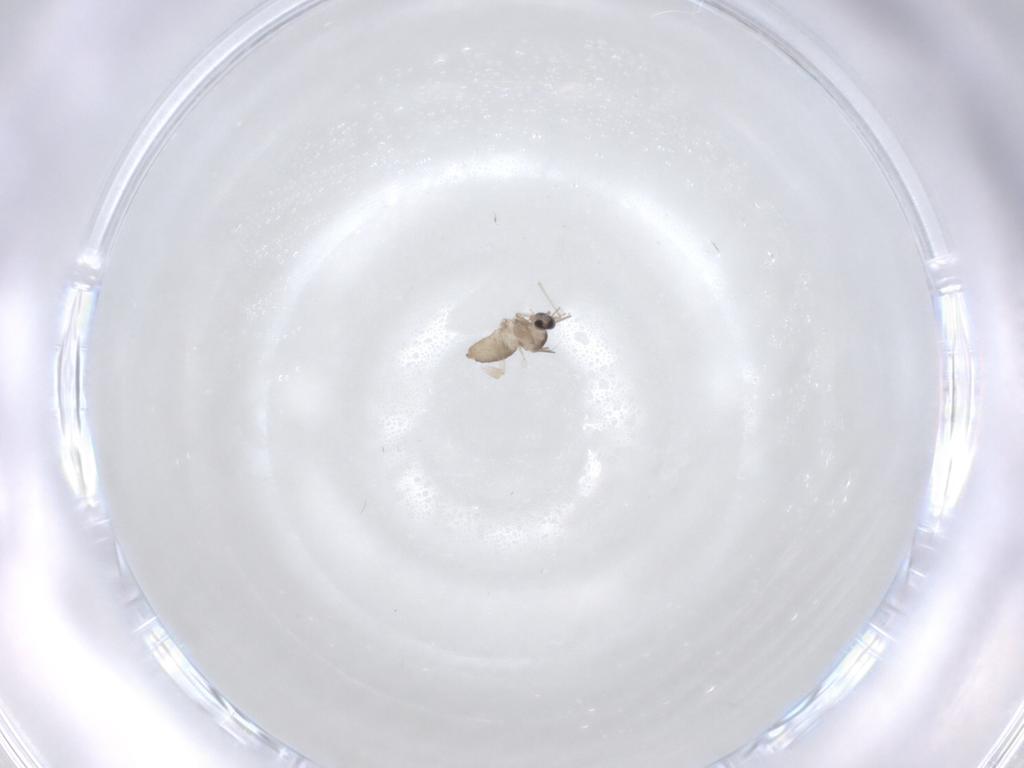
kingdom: Animalia
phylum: Arthropoda
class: Insecta
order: Diptera
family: Cecidomyiidae
